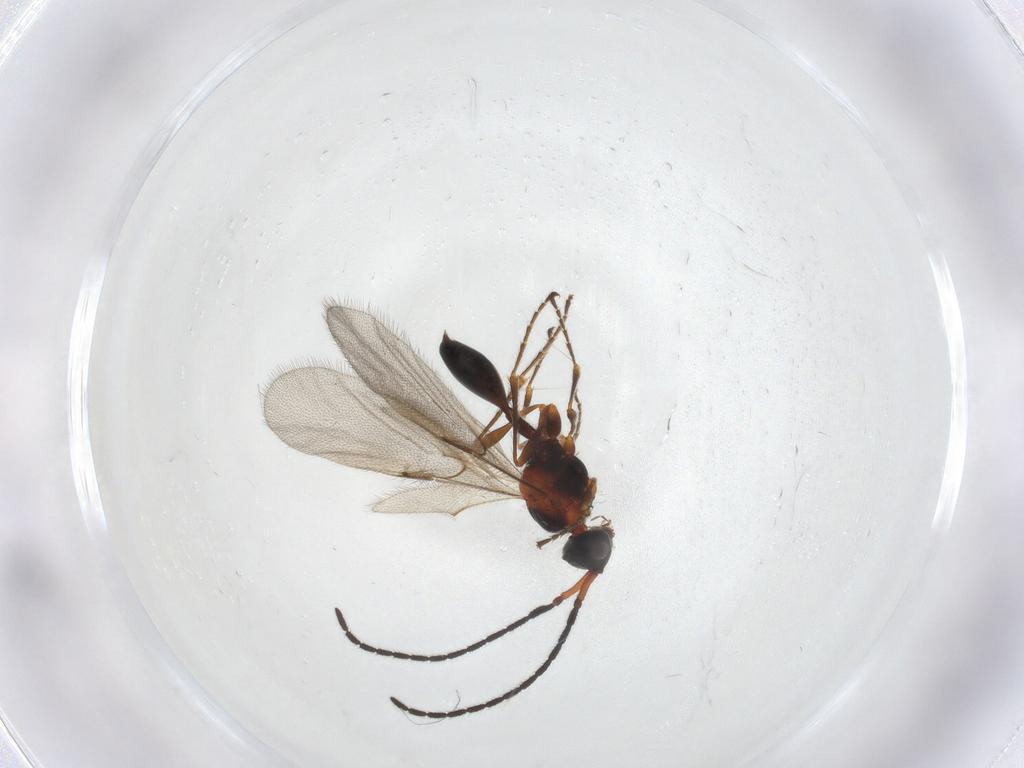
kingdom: Animalia
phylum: Arthropoda
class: Insecta
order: Hymenoptera
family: Diapriidae
